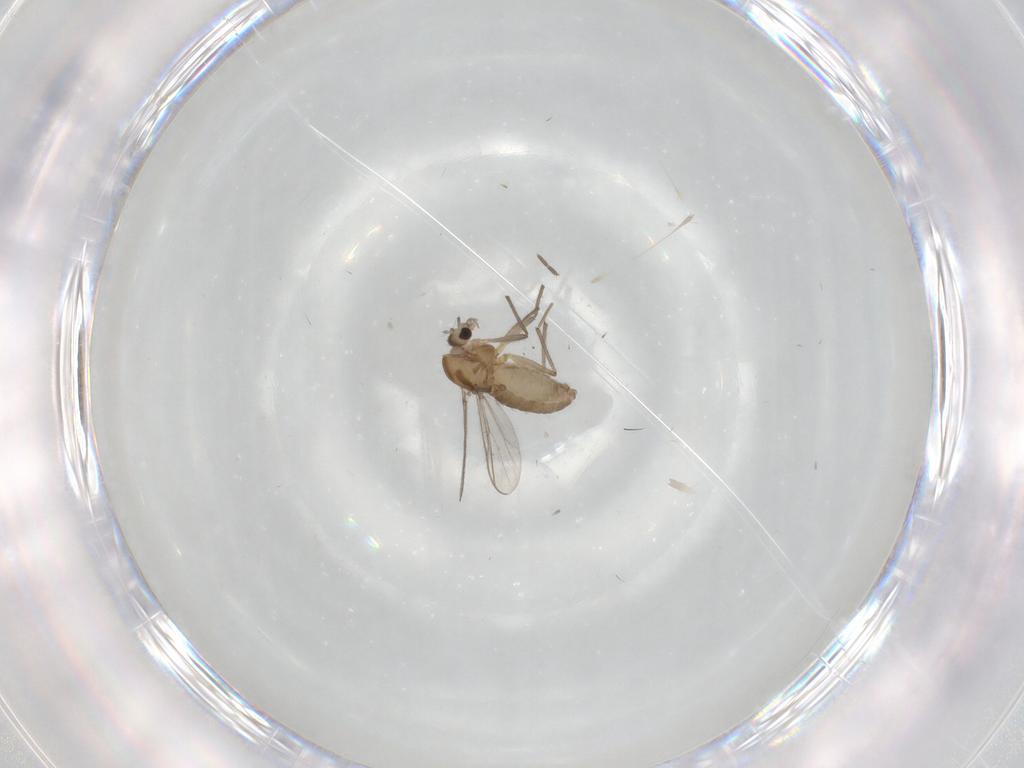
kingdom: Animalia
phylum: Arthropoda
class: Insecta
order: Diptera
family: Chironomidae
